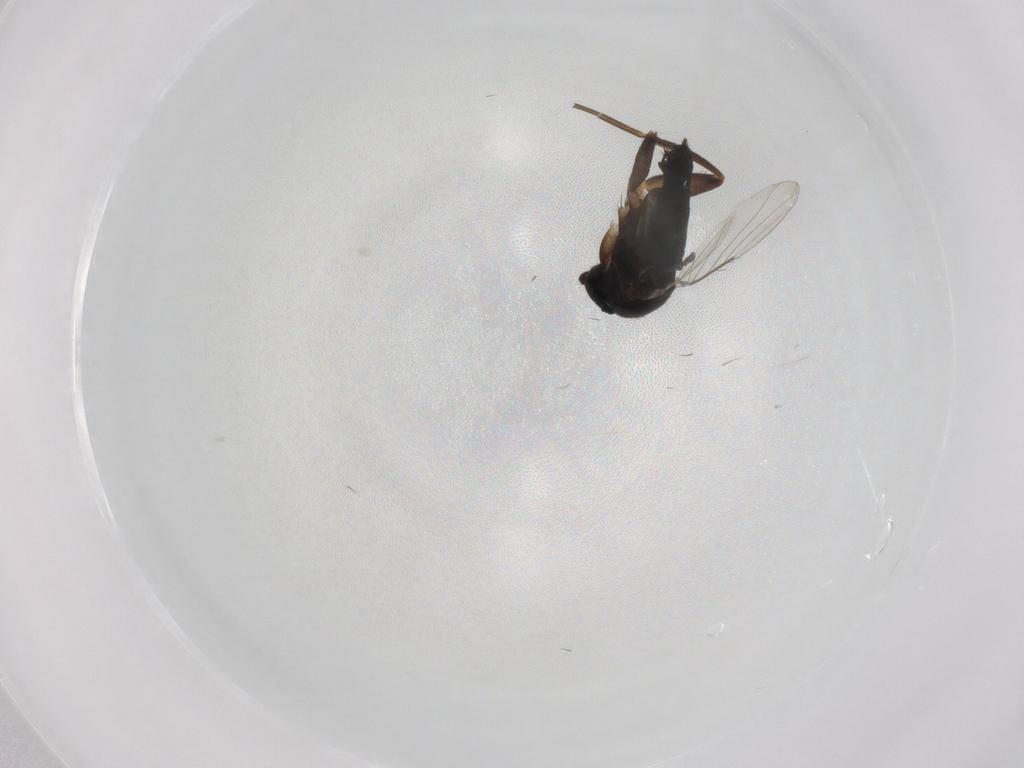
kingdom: Animalia
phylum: Arthropoda
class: Insecta
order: Diptera
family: Phoridae
